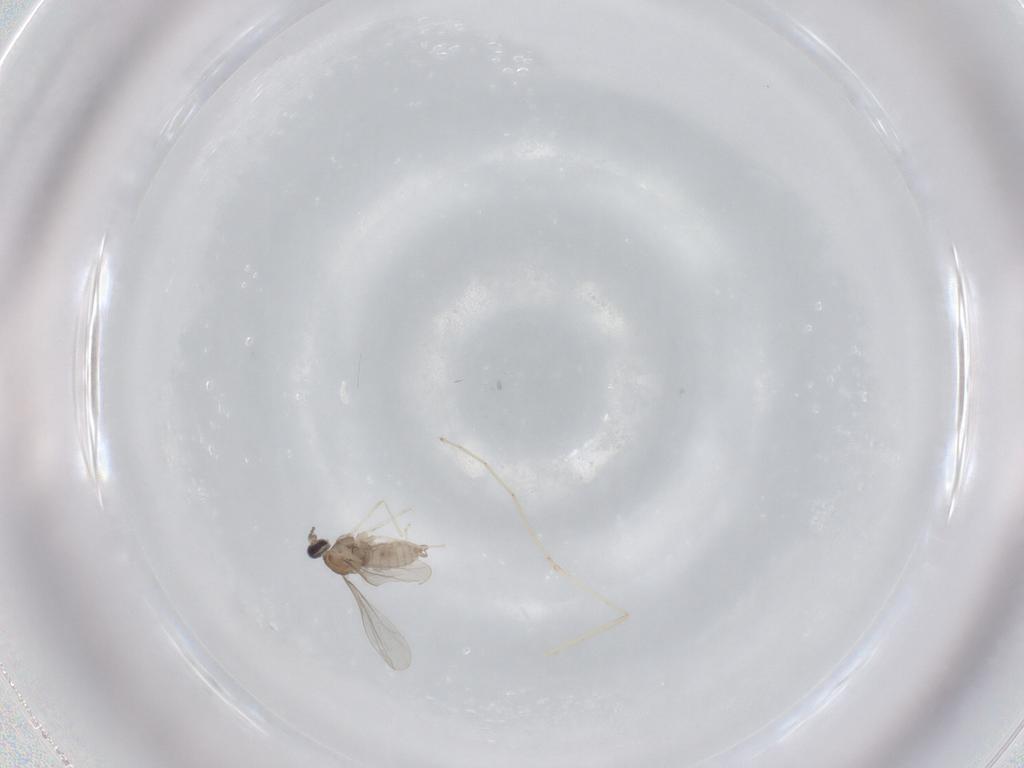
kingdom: Animalia
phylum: Arthropoda
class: Insecta
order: Diptera
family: Cecidomyiidae
